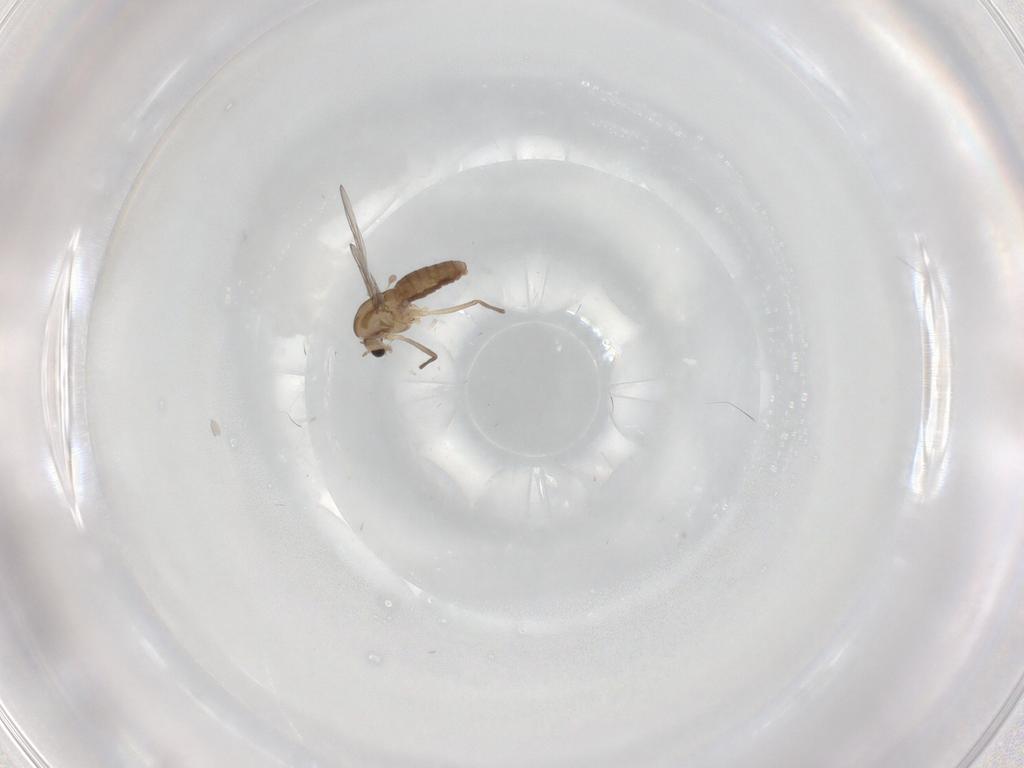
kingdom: Animalia
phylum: Arthropoda
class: Insecta
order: Diptera
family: Chironomidae
